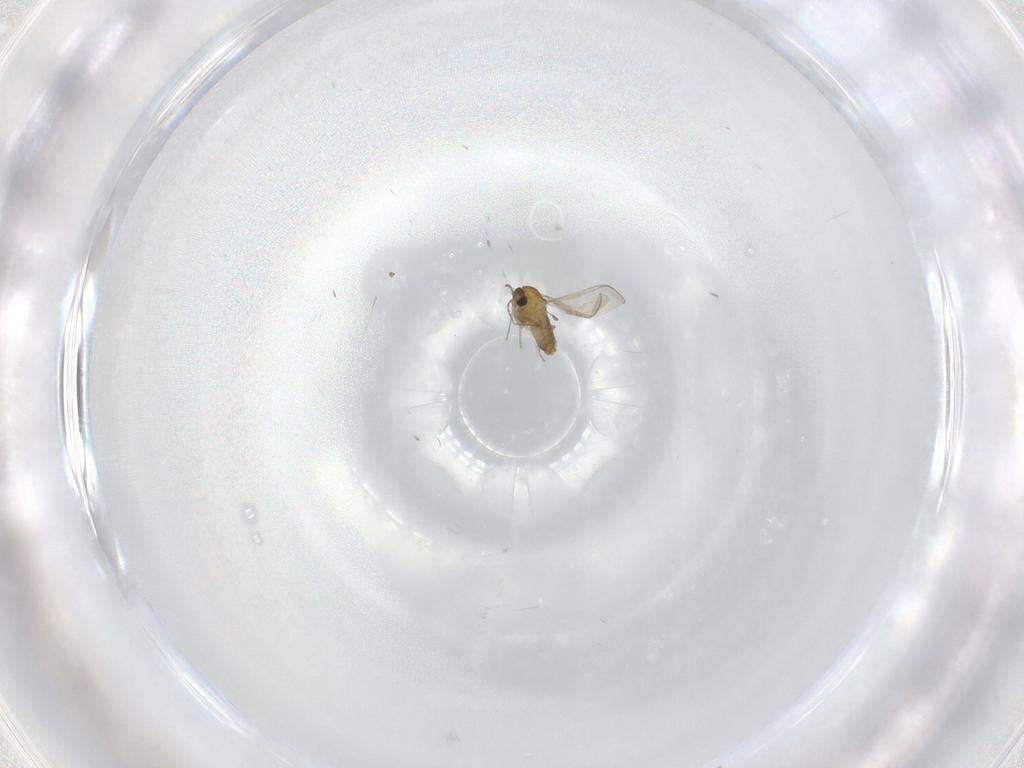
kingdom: Animalia
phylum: Arthropoda
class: Insecta
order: Diptera
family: Chironomidae
